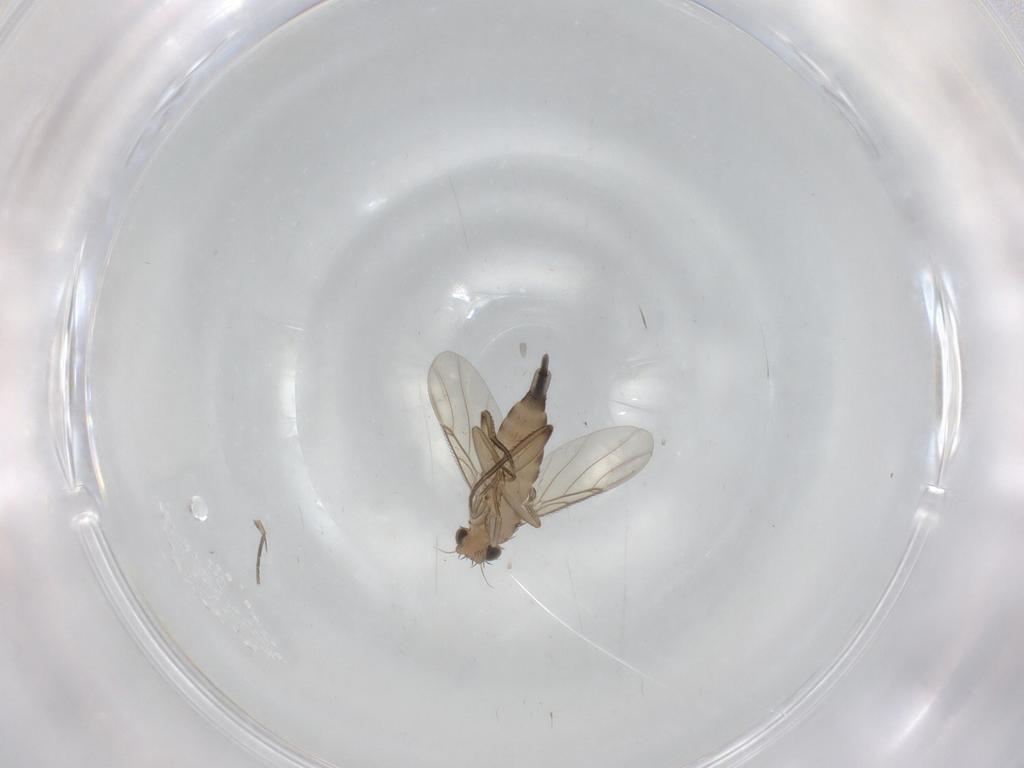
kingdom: Animalia
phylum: Arthropoda
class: Insecta
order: Diptera
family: Phoridae
